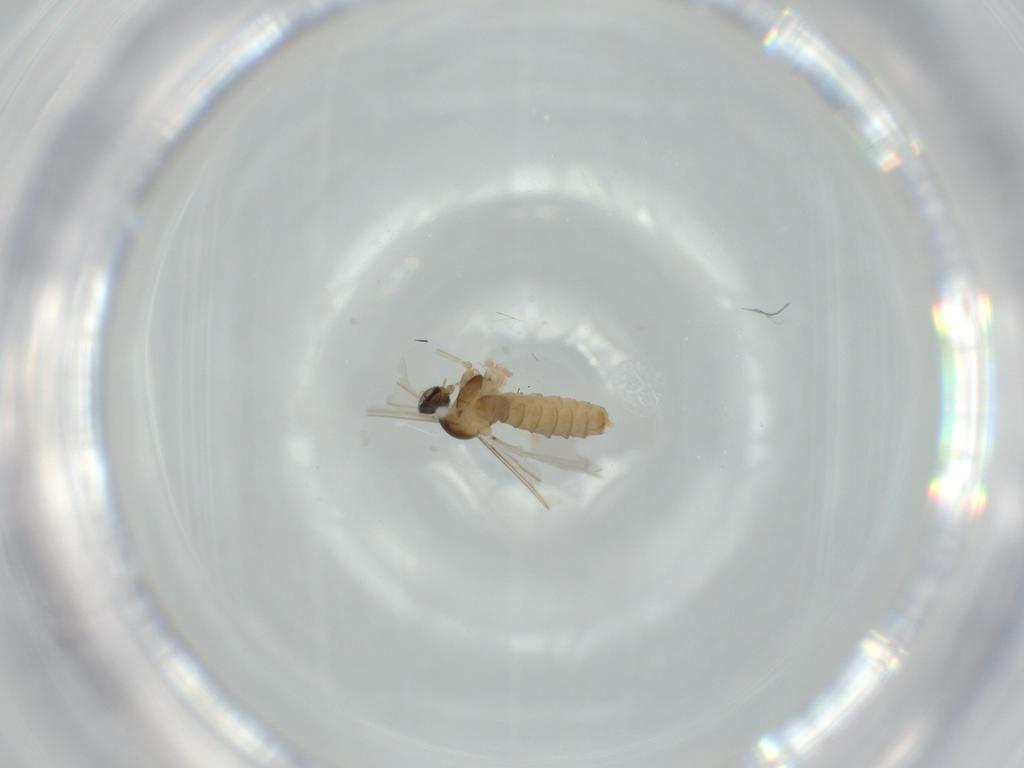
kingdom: Animalia
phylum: Arthropoda
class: Insecta
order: Diptera
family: Cecidomyiidae
